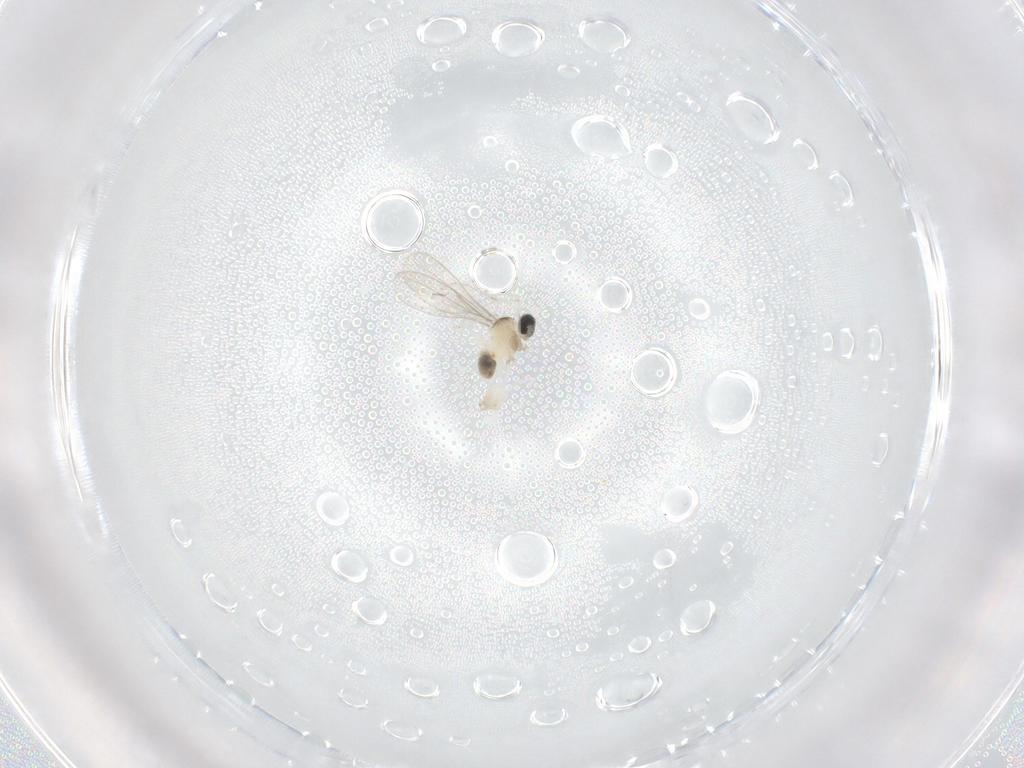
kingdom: Animalia
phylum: Arthropoda
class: Insecta
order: Diptera
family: Cecidomyiidae
